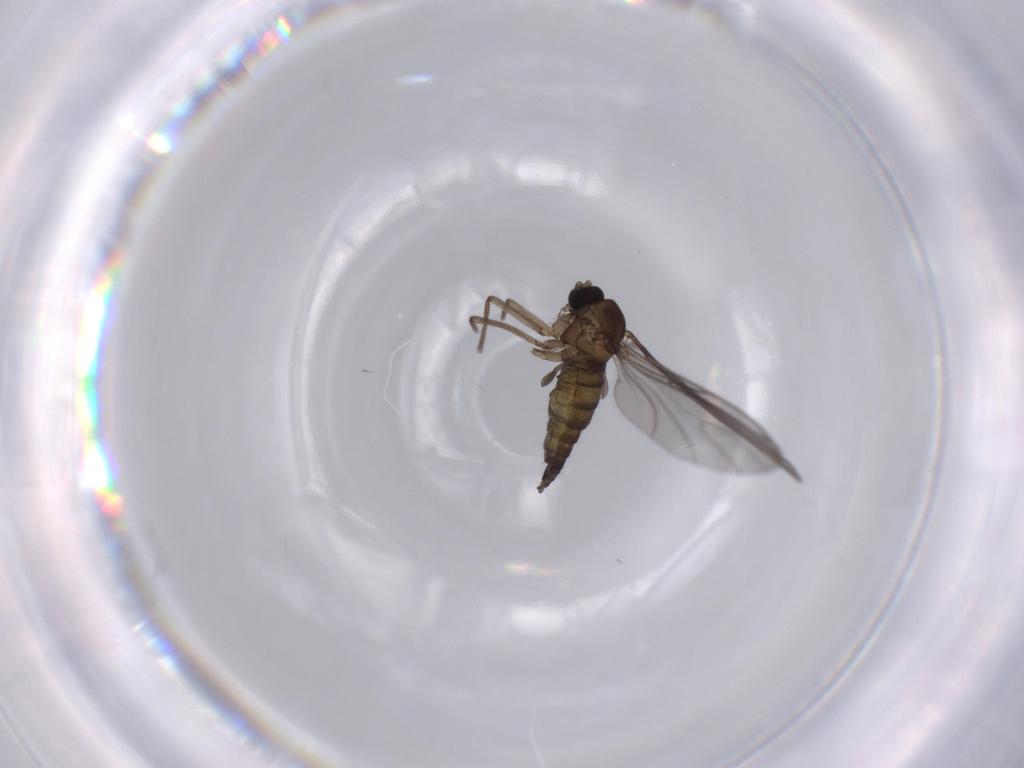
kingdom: Animalia
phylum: Arthropoda
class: Insecta
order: Diptera
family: Sciaridae
